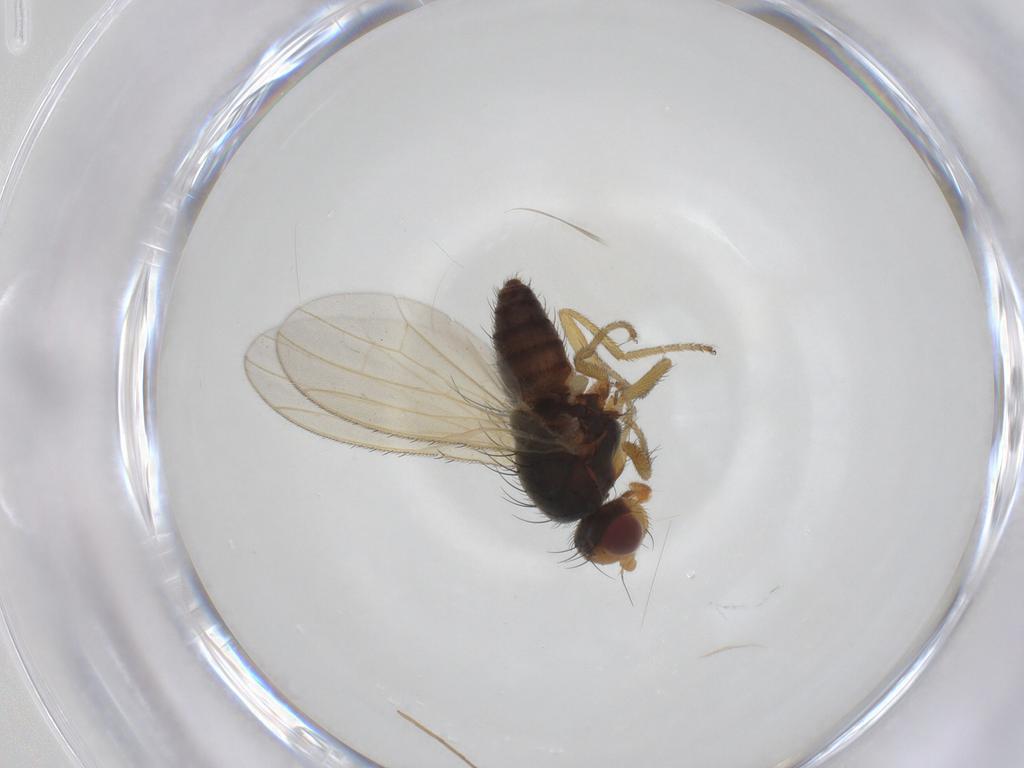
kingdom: Animalia
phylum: Arthropoda
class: Insecta
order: Diptera
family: Heleomyzidae
